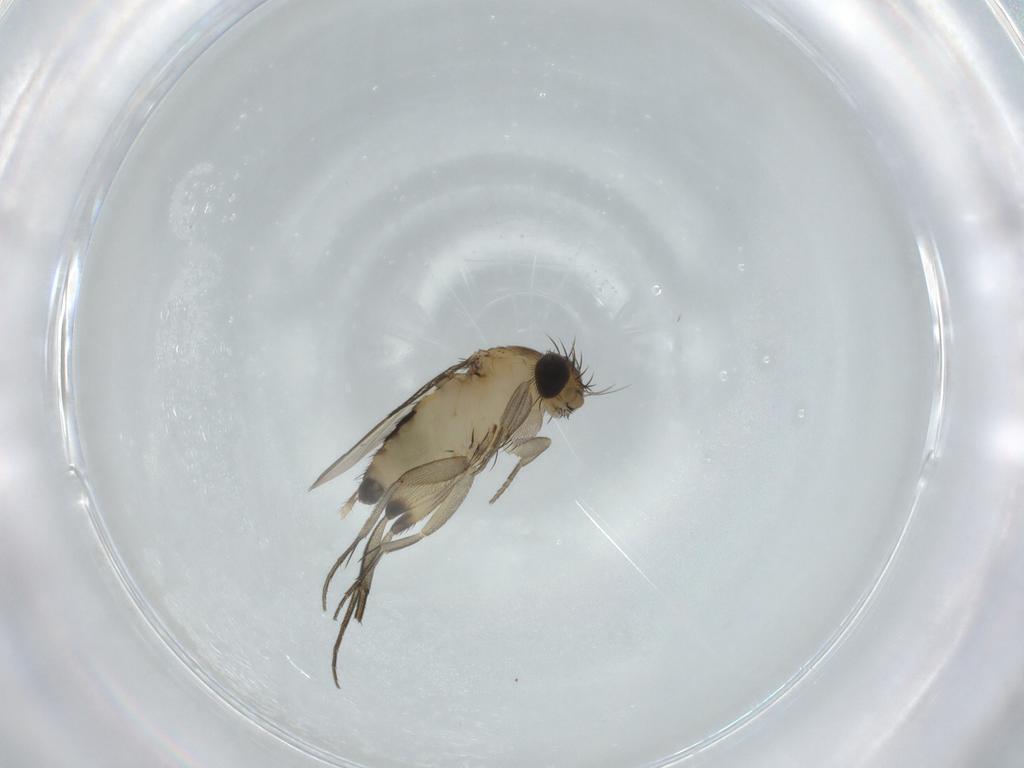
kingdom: Animalia
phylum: Arthropoda
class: Insecta
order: Diptera
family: Phoridae
